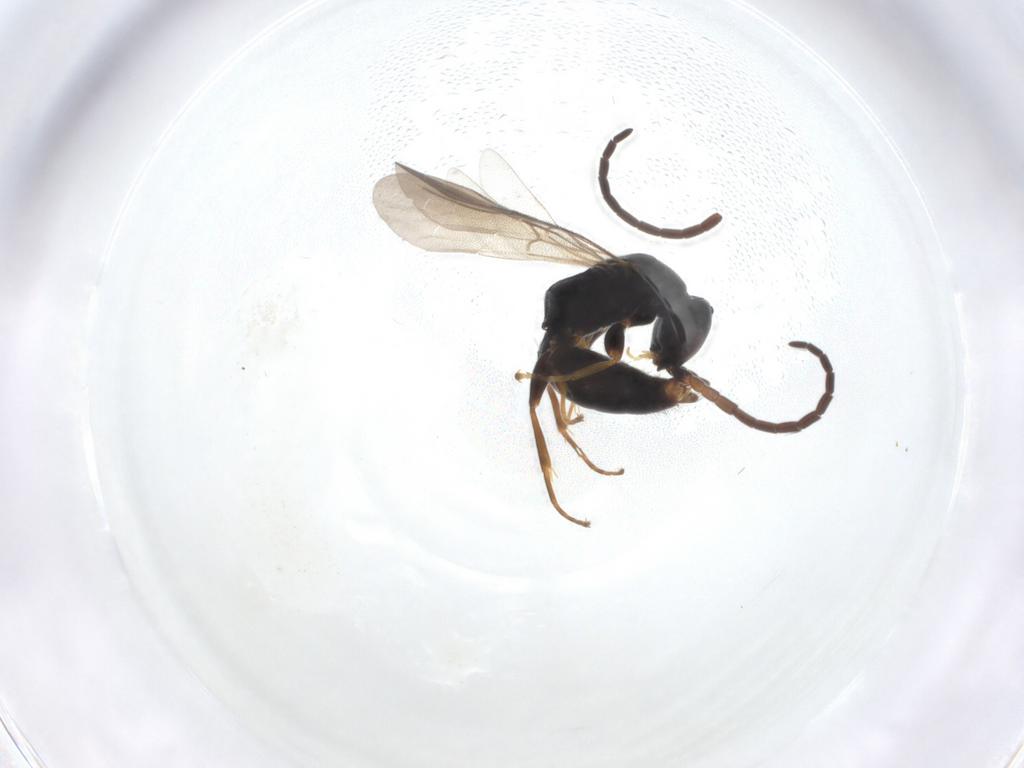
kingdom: Animalia
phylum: Arthropoda
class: Insecta
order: Hymenoptera
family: Bethylidae
